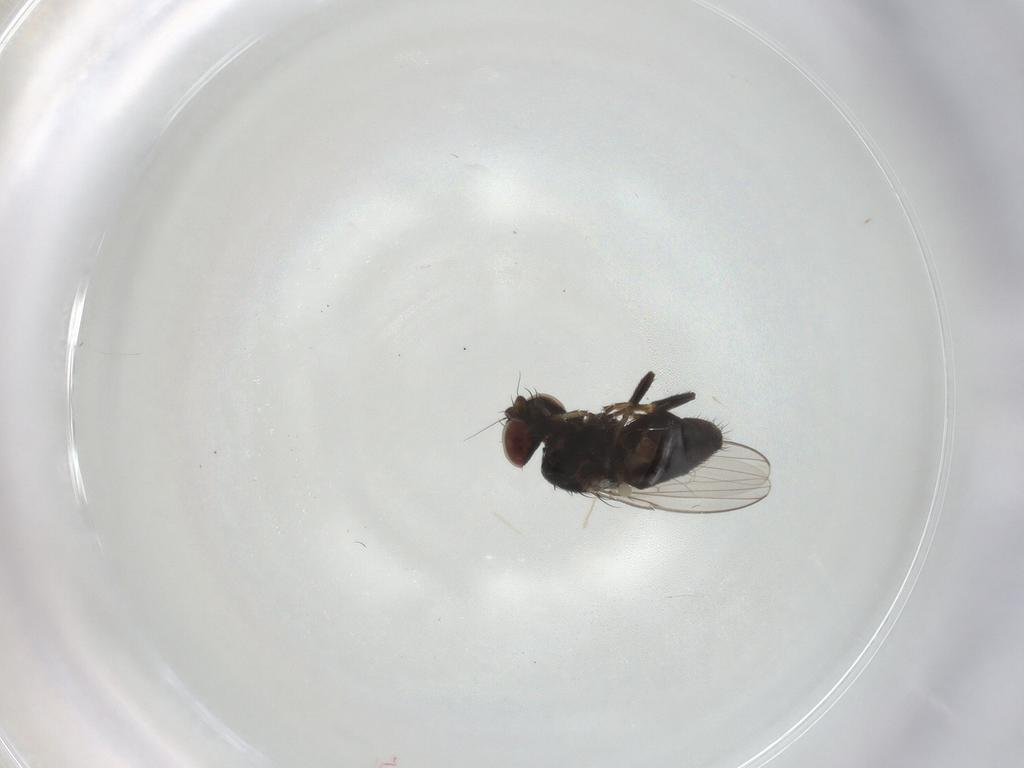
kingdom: Animalia
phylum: Arthropoda
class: Insecta
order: Diptera
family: Milichiidae
